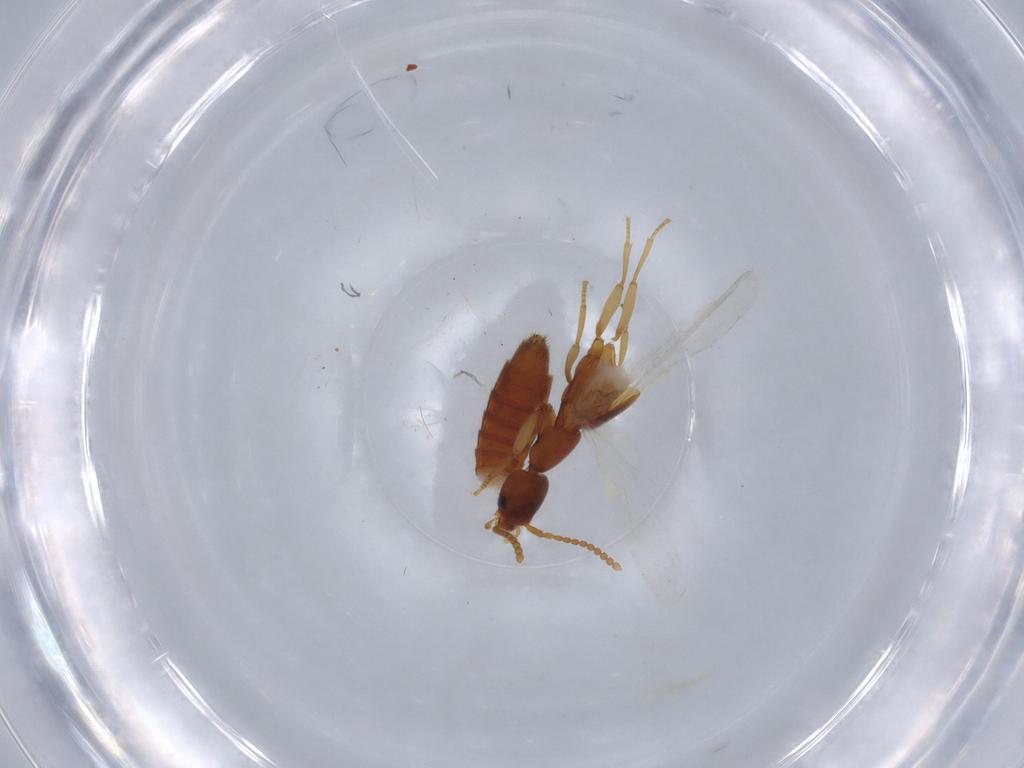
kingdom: Animalia
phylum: Arthropoda
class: Insecta
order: Coleoptera
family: Staphylinidae
